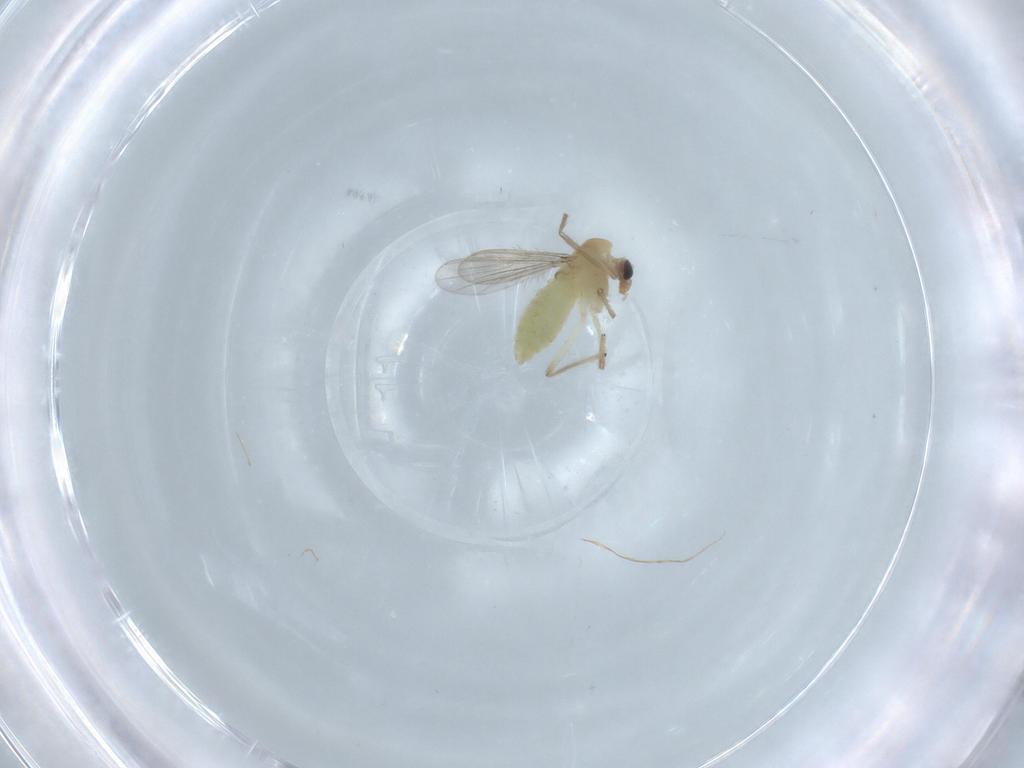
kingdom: Animalia
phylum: Arthropoda
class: Insecta
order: Diptera
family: Chironomidae
